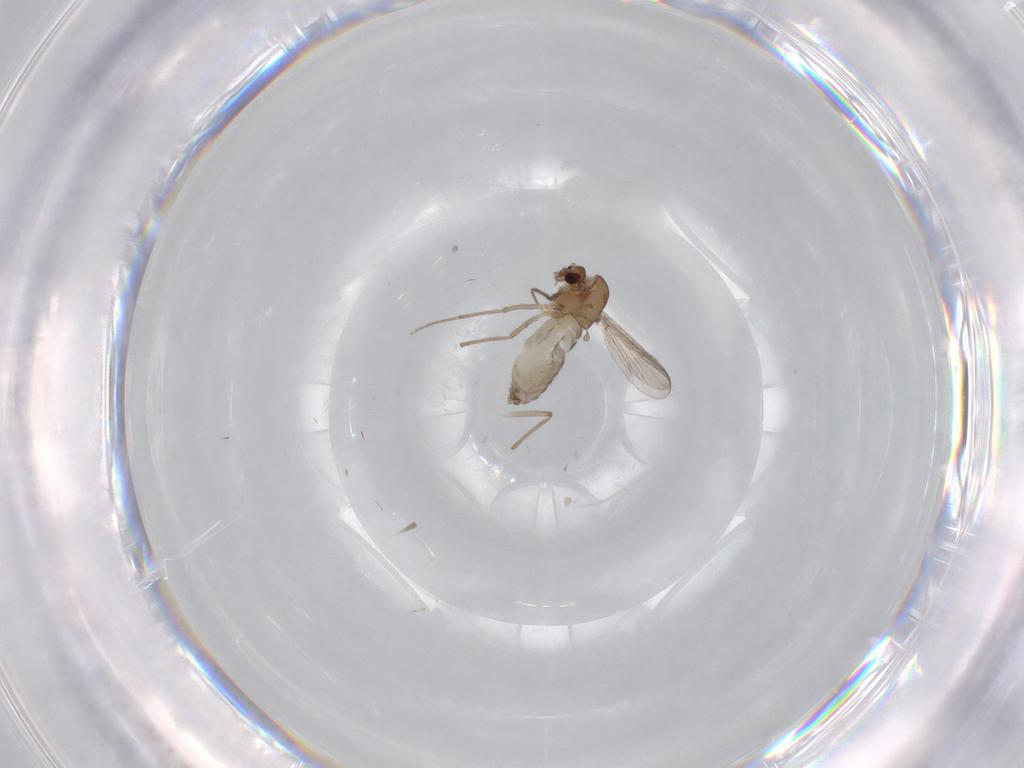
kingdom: Animalia
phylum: Arthropoda
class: Insecta
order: Diptera
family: Chironomidae
